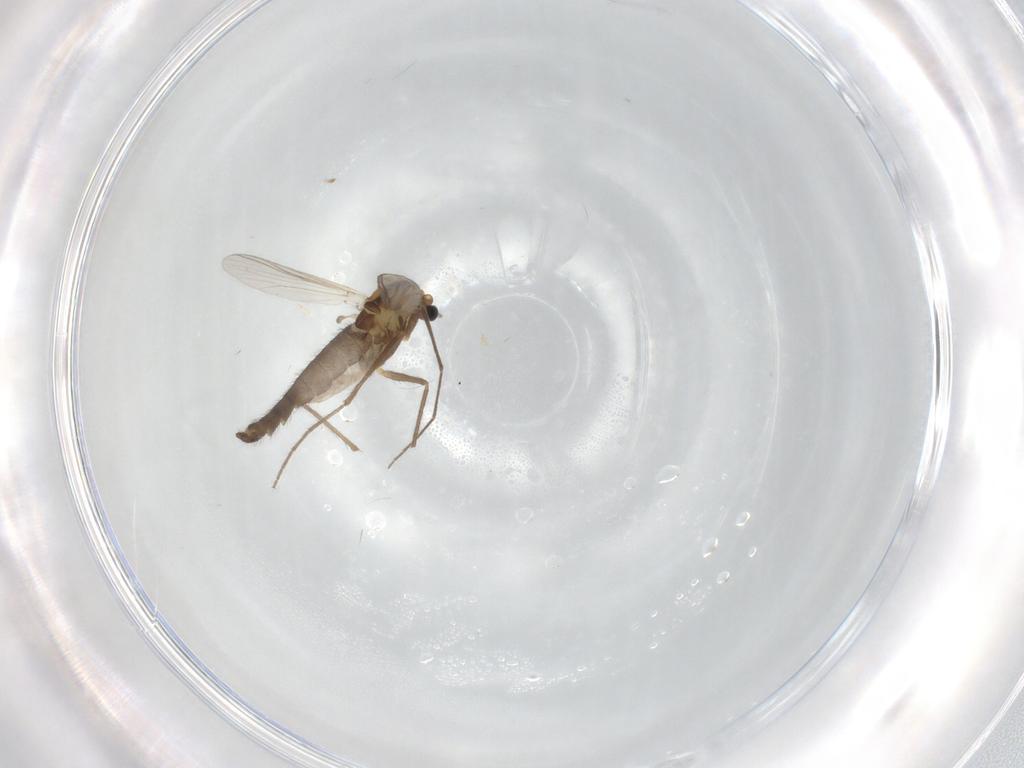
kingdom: Animalia
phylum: Arthropoda
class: Insecta
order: Diptera
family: Chironomidae
